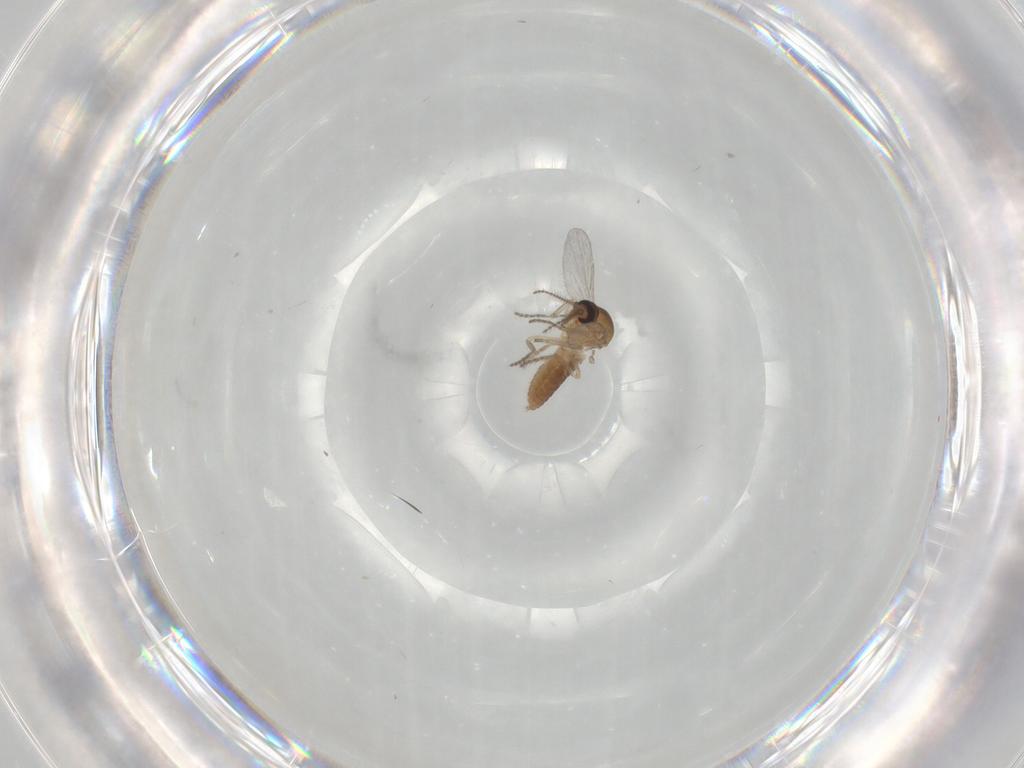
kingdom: Animalia
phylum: Arthropoda
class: Insecta
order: Diptera
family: Ceratopogonidae
